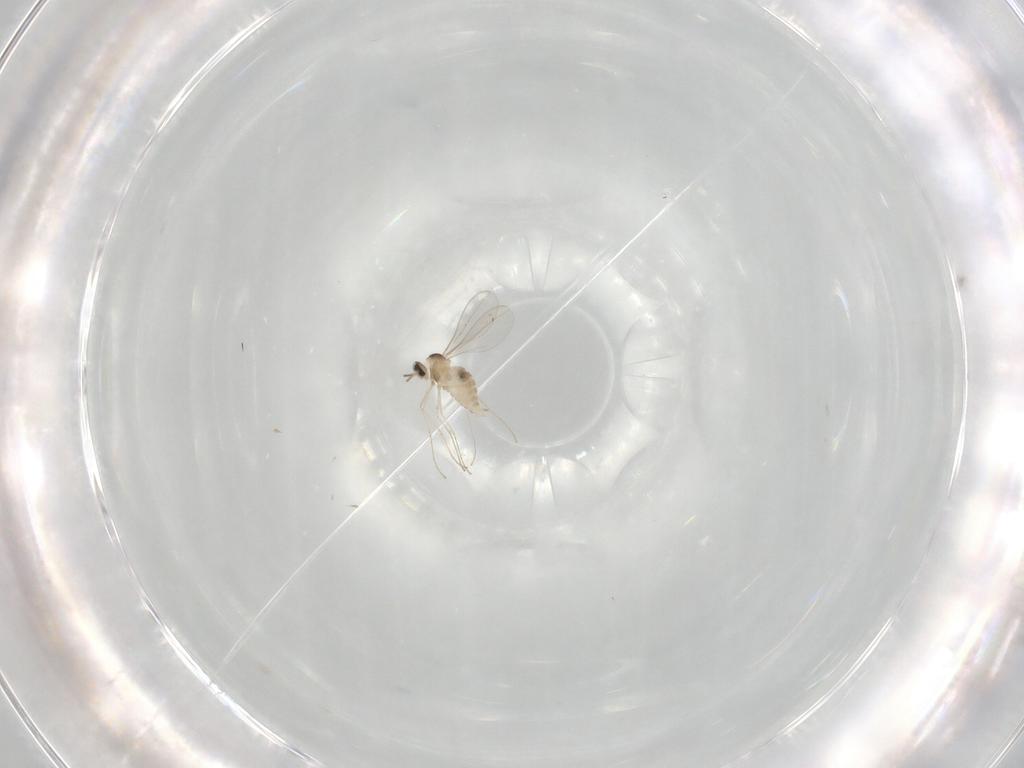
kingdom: Animalia
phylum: Arthropoda
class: Insecta
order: Diptera
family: Cecidomyiidae
